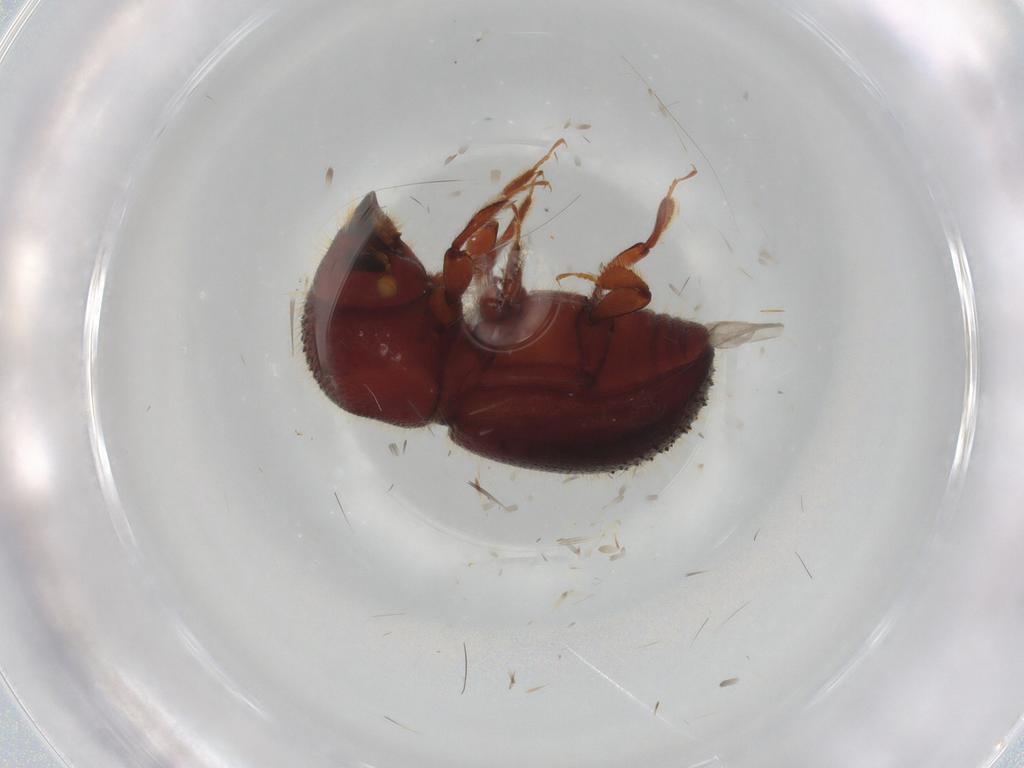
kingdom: Animalia
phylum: Arthropoda
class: Insecta
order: Coleoptera
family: Curculionidae
